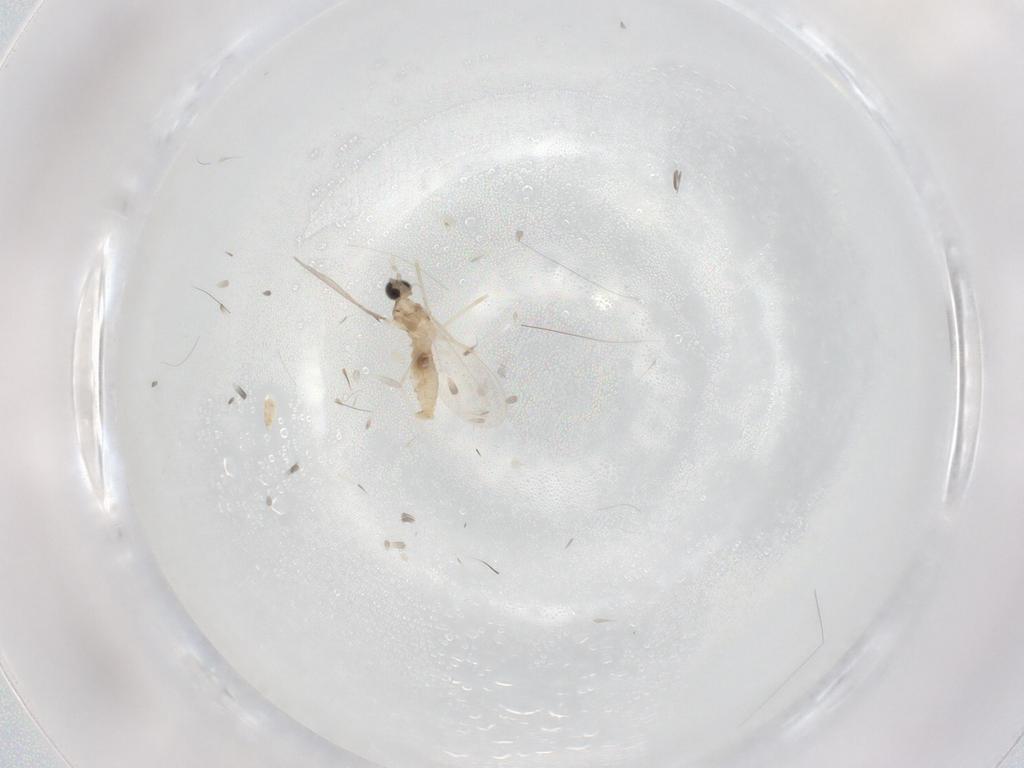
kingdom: Animalia
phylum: Arthropoda
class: Insecta
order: Diptera
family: Cecidomyiidae
